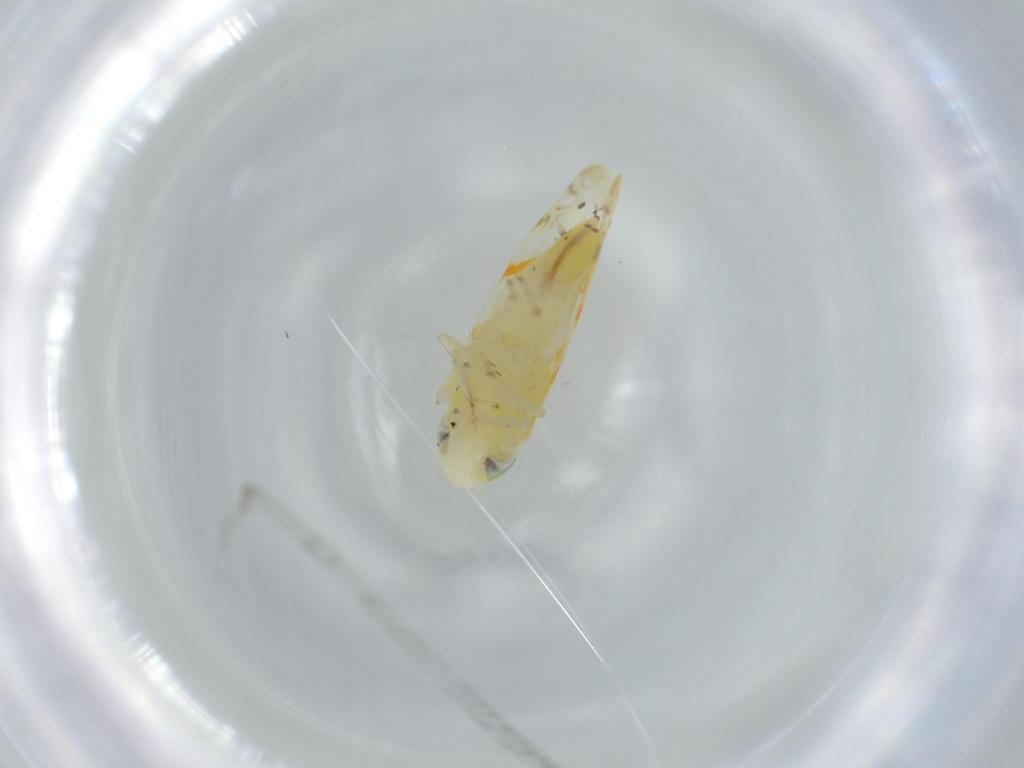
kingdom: Animalia
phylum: Arthropoda
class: Insecta
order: Hemiptera
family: Cicadellidae
